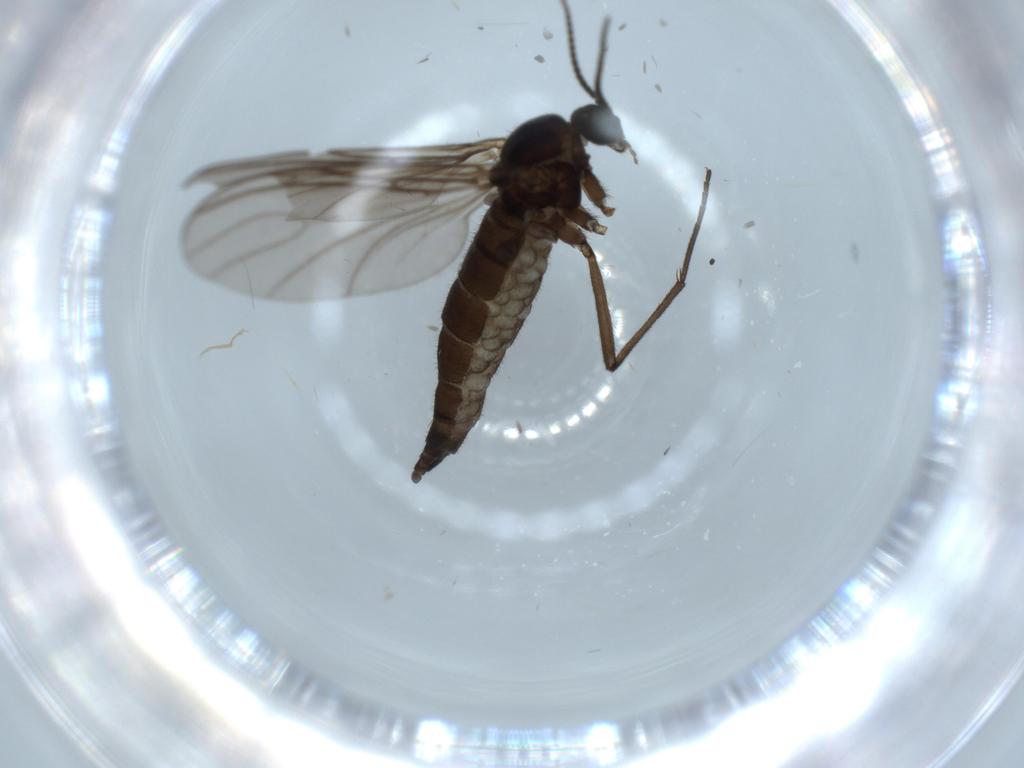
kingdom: Animalia
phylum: Arthropoda
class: Insecta
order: Diptera
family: Sciaridae
